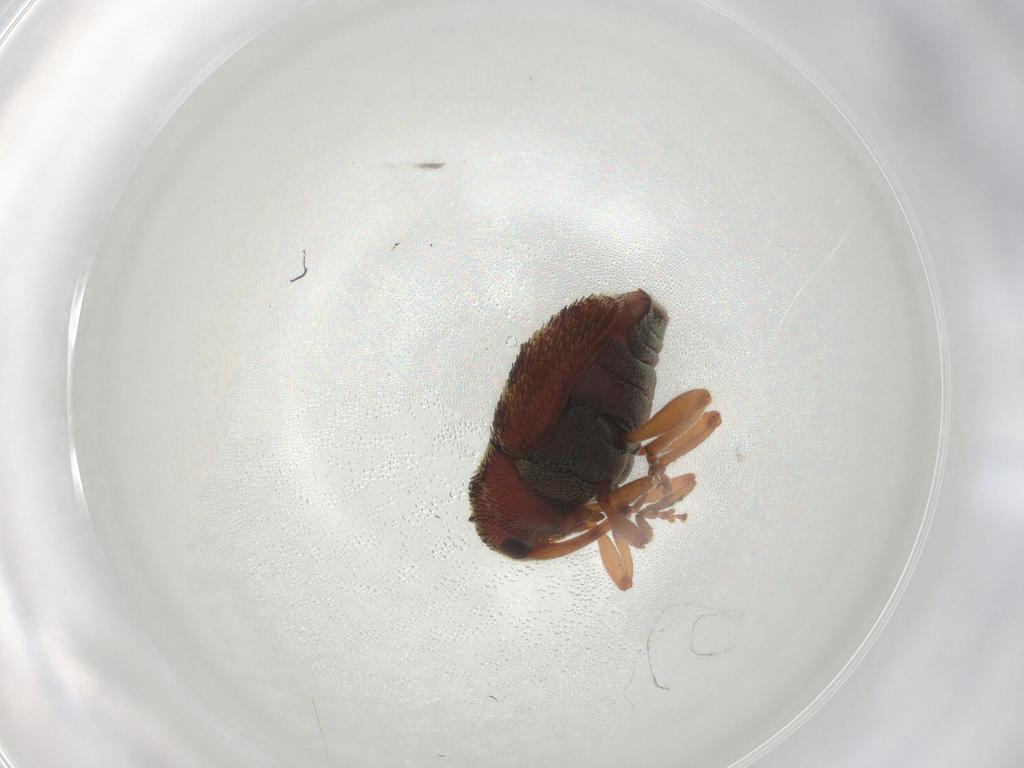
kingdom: Animalia
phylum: Arthropoda
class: Insecta
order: Coleoptera
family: Curculionidae
